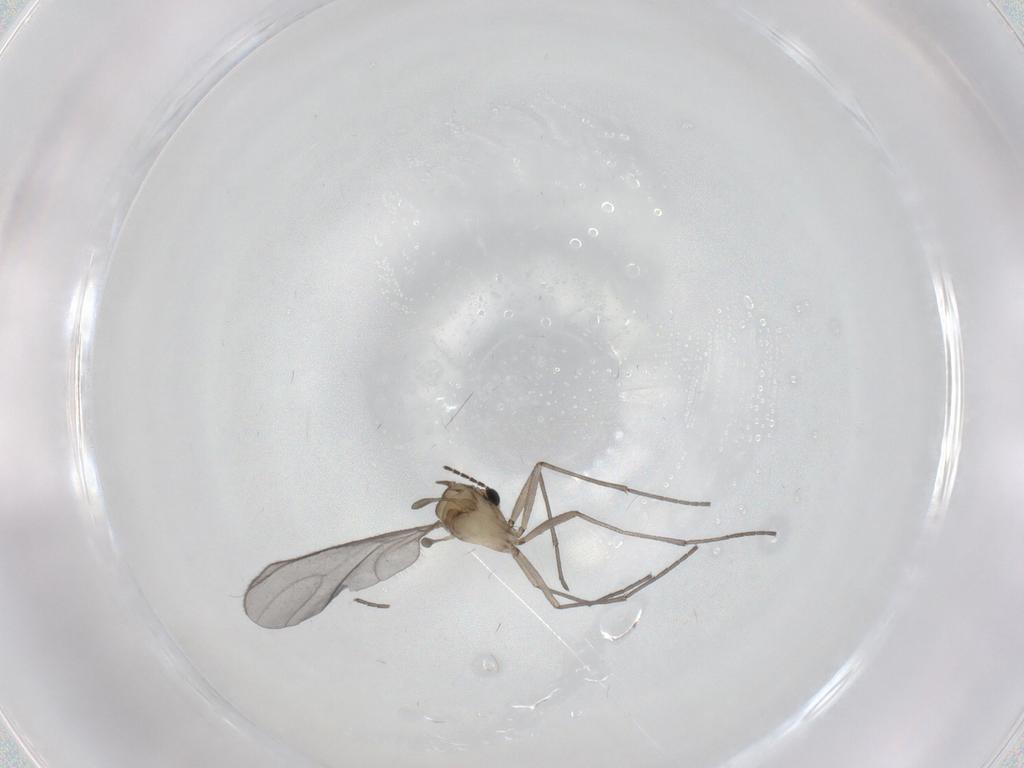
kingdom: Animalia
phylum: Arthropoda
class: Insecta
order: Diptera
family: Sciaridae
